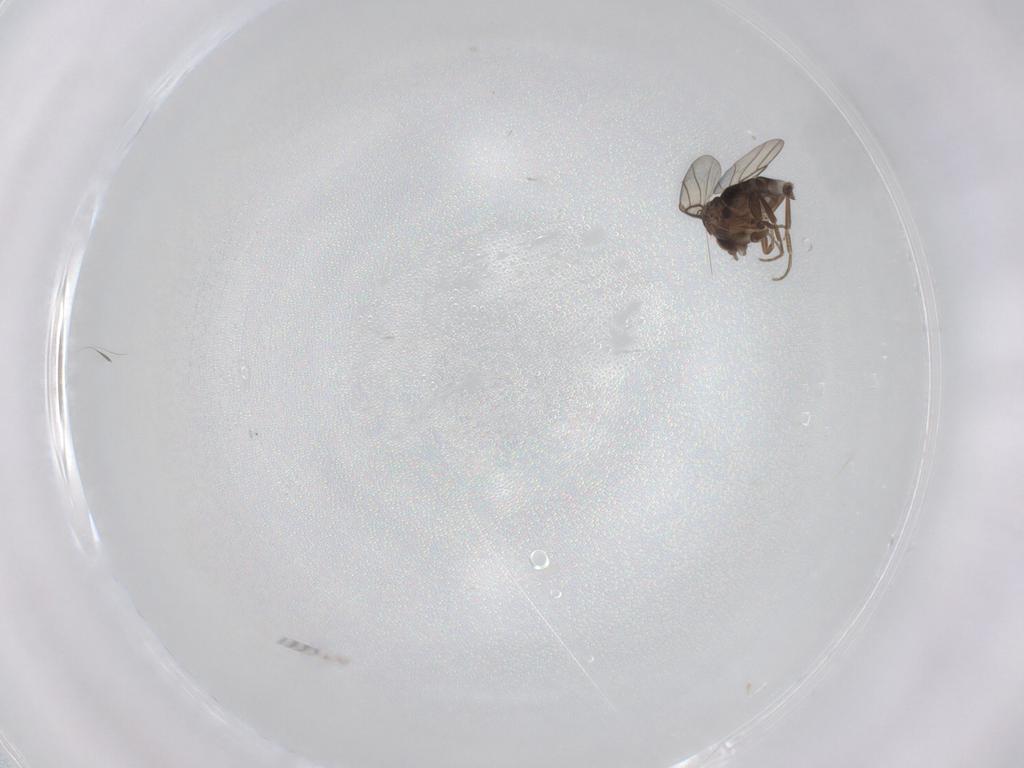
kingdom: Animalia
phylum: Arthropoda
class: Insecta
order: Diptera
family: Phoridae
